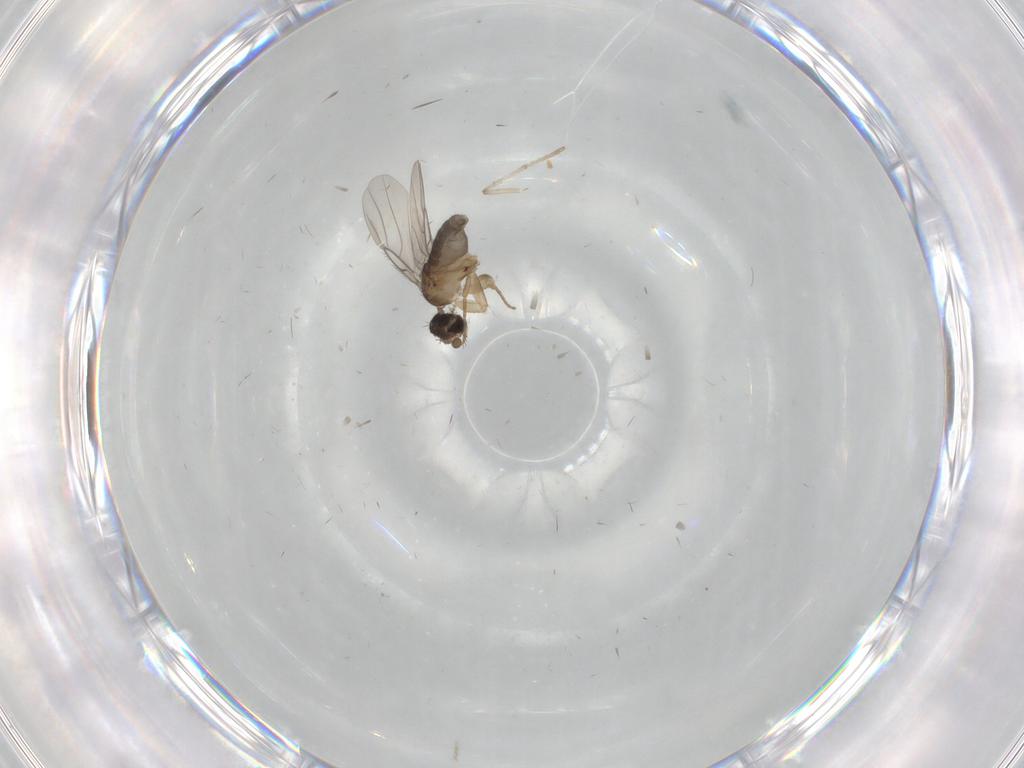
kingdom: Animalia
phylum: Arthropoda
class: Insecta
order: Diptera
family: Phoridae
